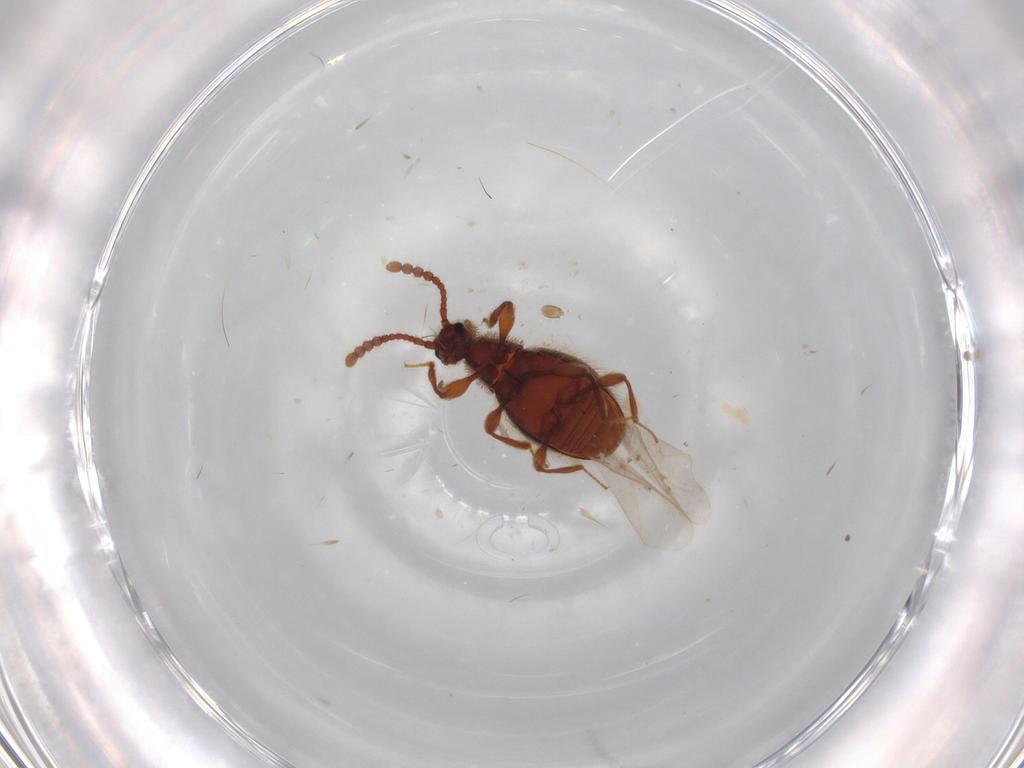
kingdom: Animalia
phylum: Arthropoda
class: Insecta
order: Coleoptera
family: Staphylinidae
